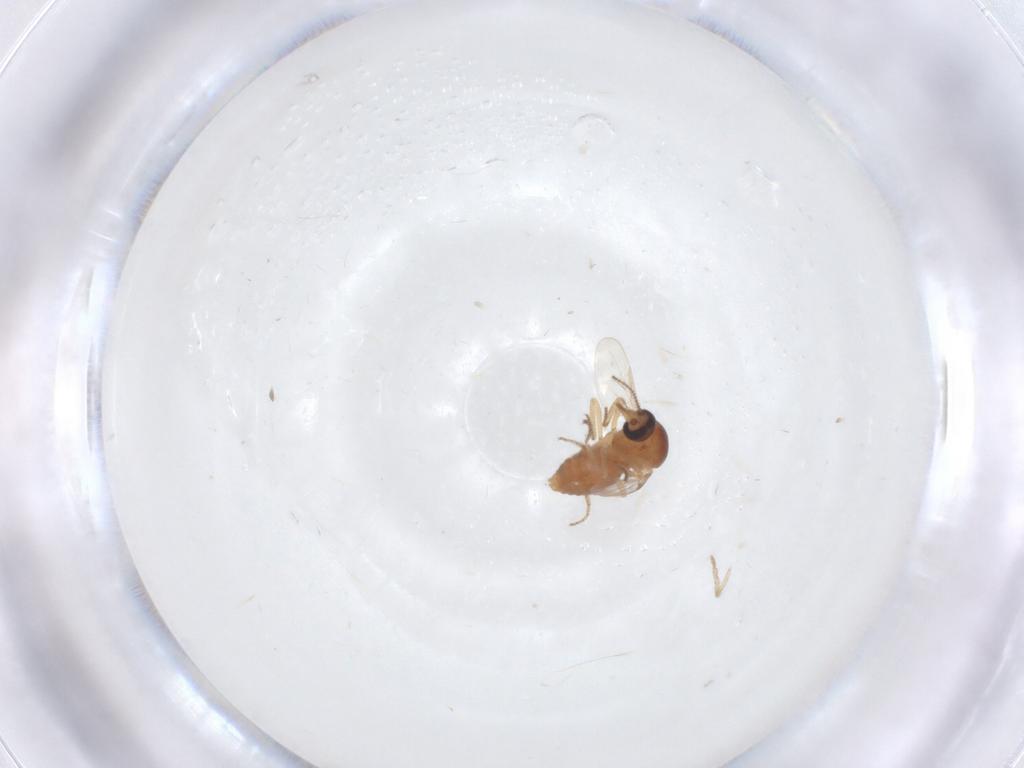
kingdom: Animalia
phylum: Arthropoda
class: Insecta
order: Diptera
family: Ceratopogonidae
